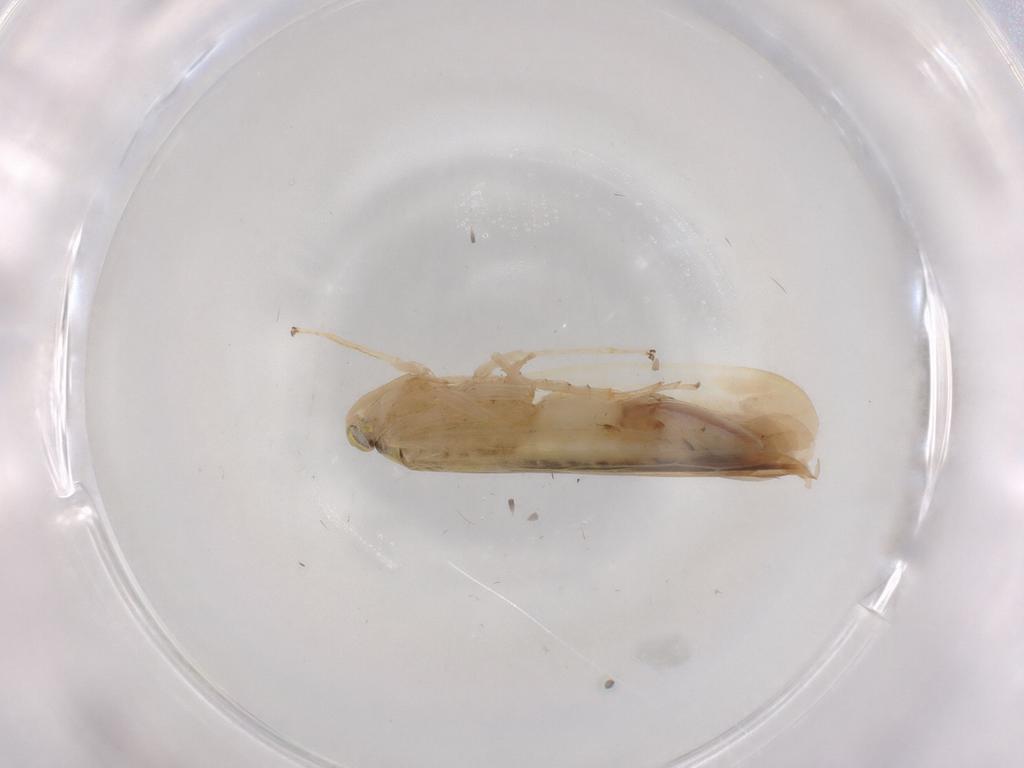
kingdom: Animalia
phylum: Arthropoda
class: Insecta
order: Hemiptera
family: Cicadellidae
